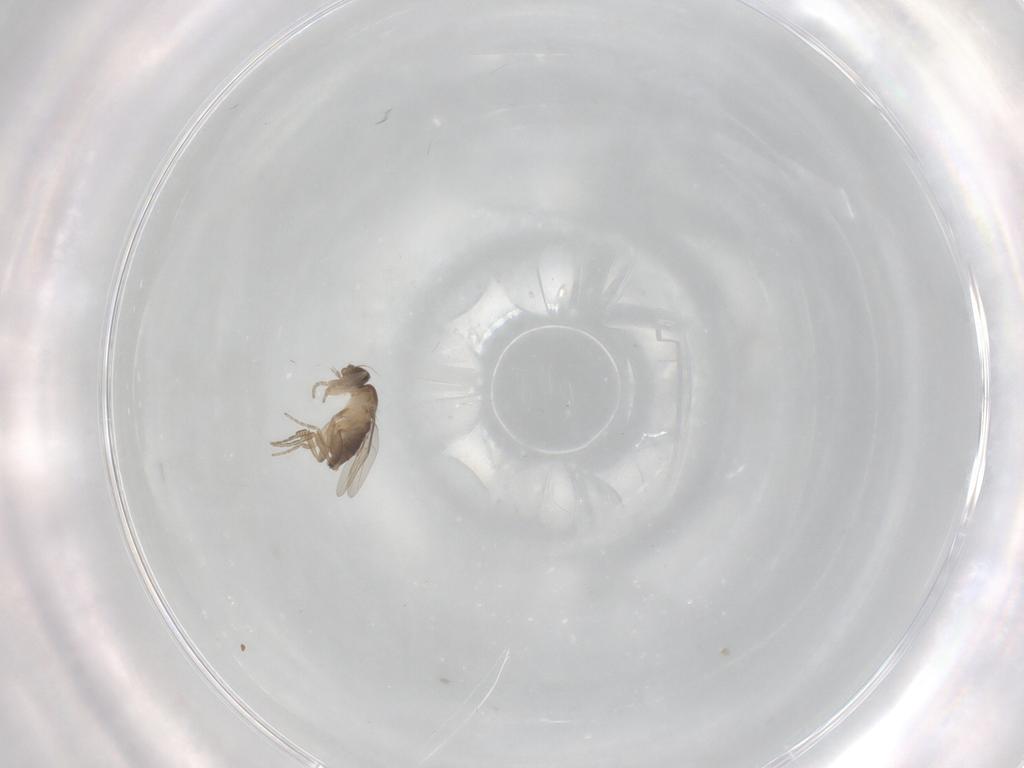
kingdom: Animalia
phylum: Arthropoda
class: Insecta
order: Diptera
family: Phoridae
